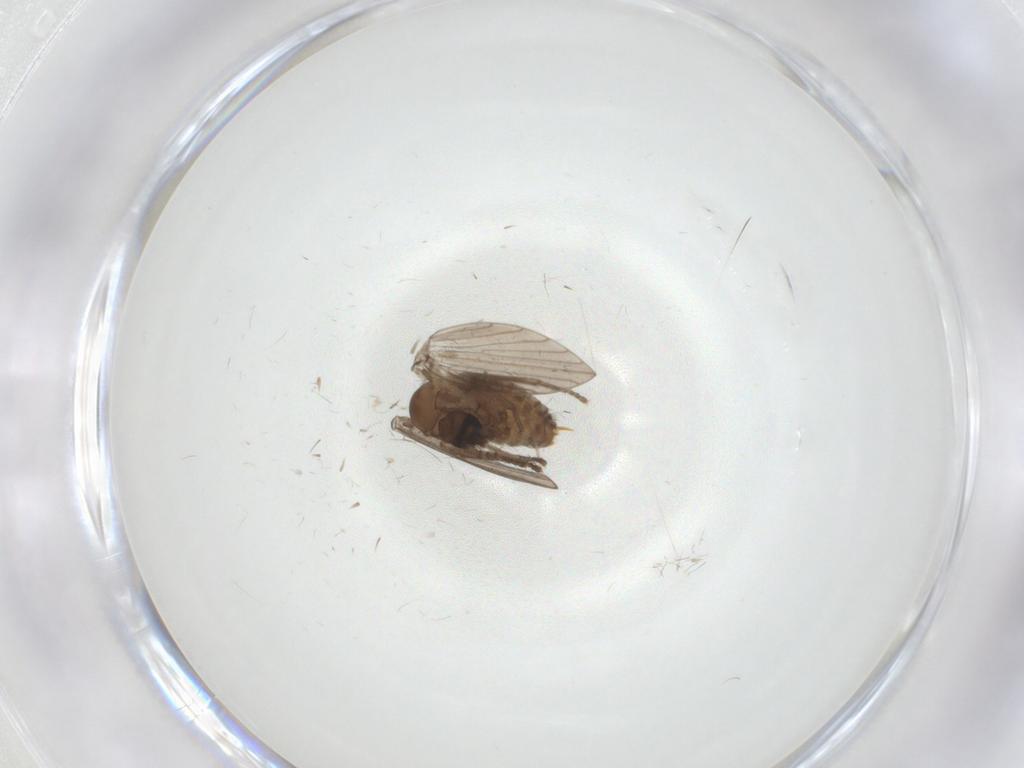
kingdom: Animalia
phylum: Arthropoda
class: Insecta
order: Diptera
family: Psychodidae
